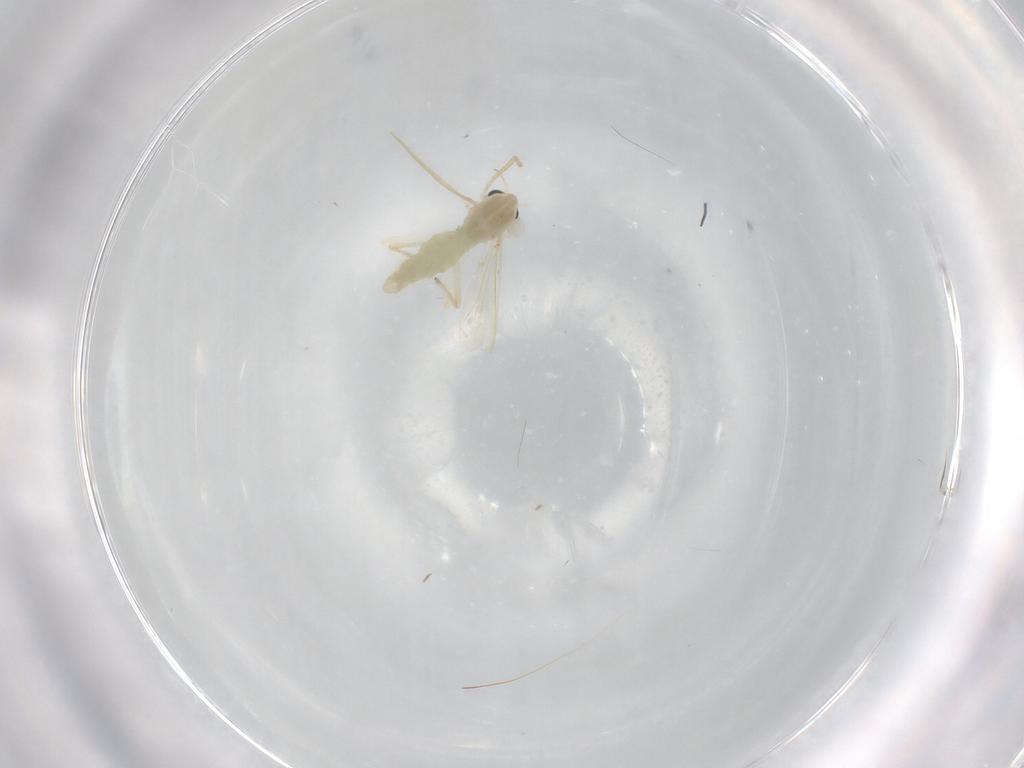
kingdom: Animalia
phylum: Arthropoda
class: Insecta
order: Diptera
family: Chironomidae
